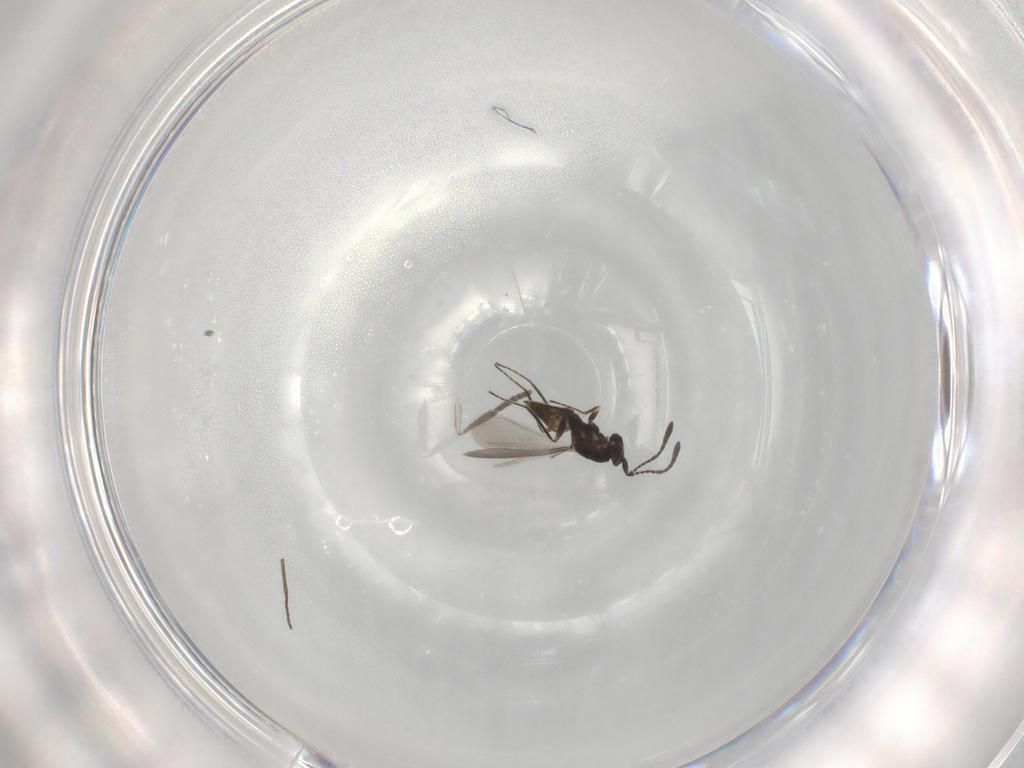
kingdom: Animalia
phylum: Arthropoda
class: Insecta
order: Hymenoptera
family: Mymaridae
